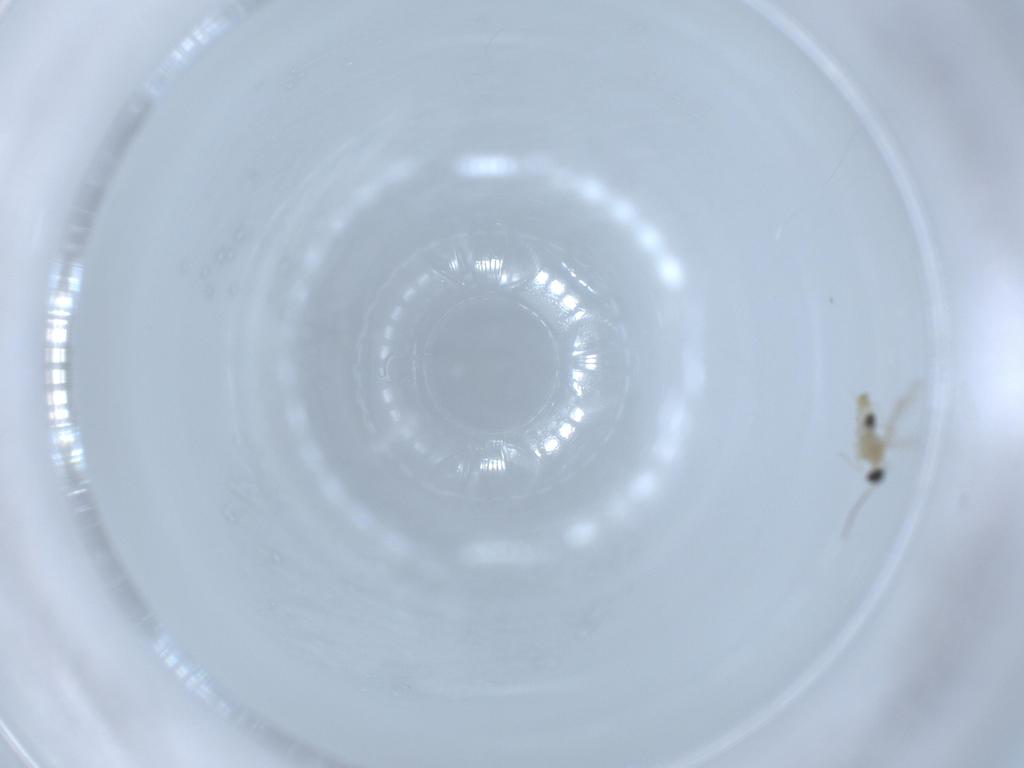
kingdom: Animalia
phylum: Arthropoda
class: Insecta
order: Diptera
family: Cecidomyiidae
